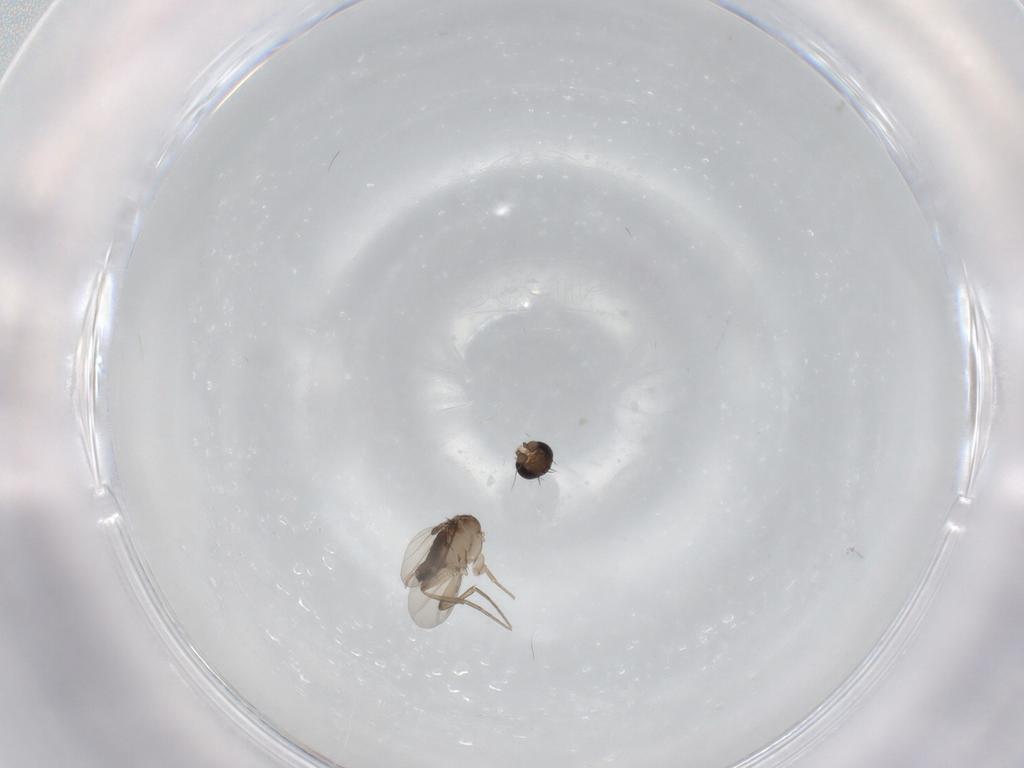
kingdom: Animalia
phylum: Arthropoda
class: Insecta
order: Diptera
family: Phoridae
